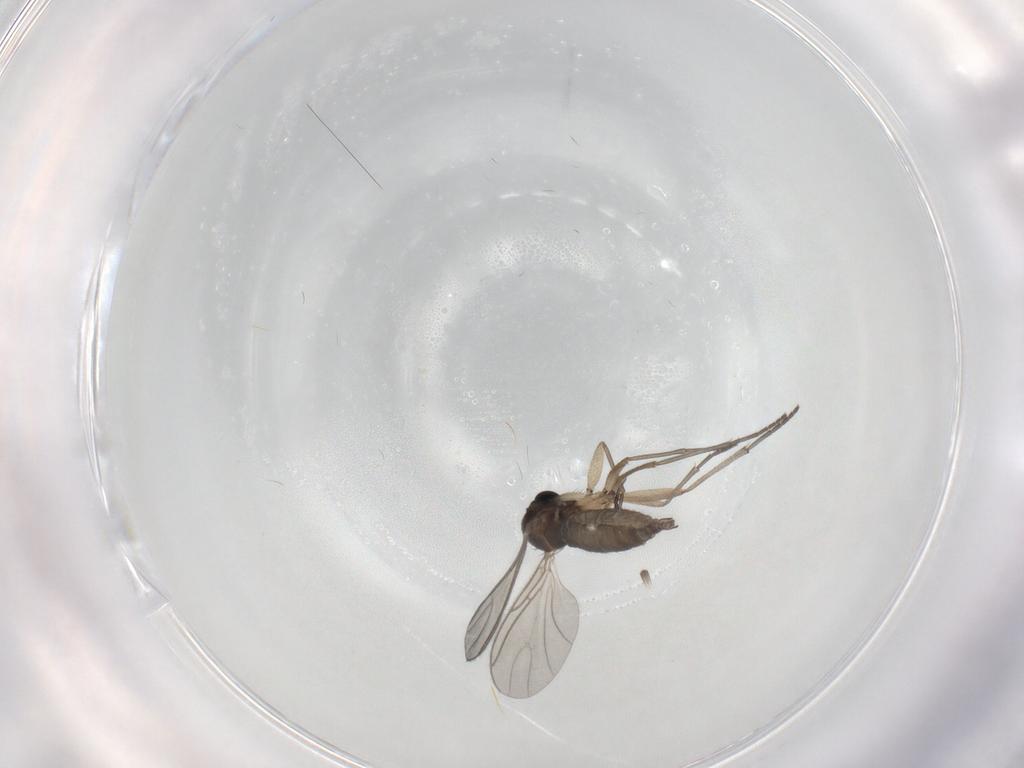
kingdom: Animalia
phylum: Arthropoda
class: Insecta
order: Diptera
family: Sciaridae
